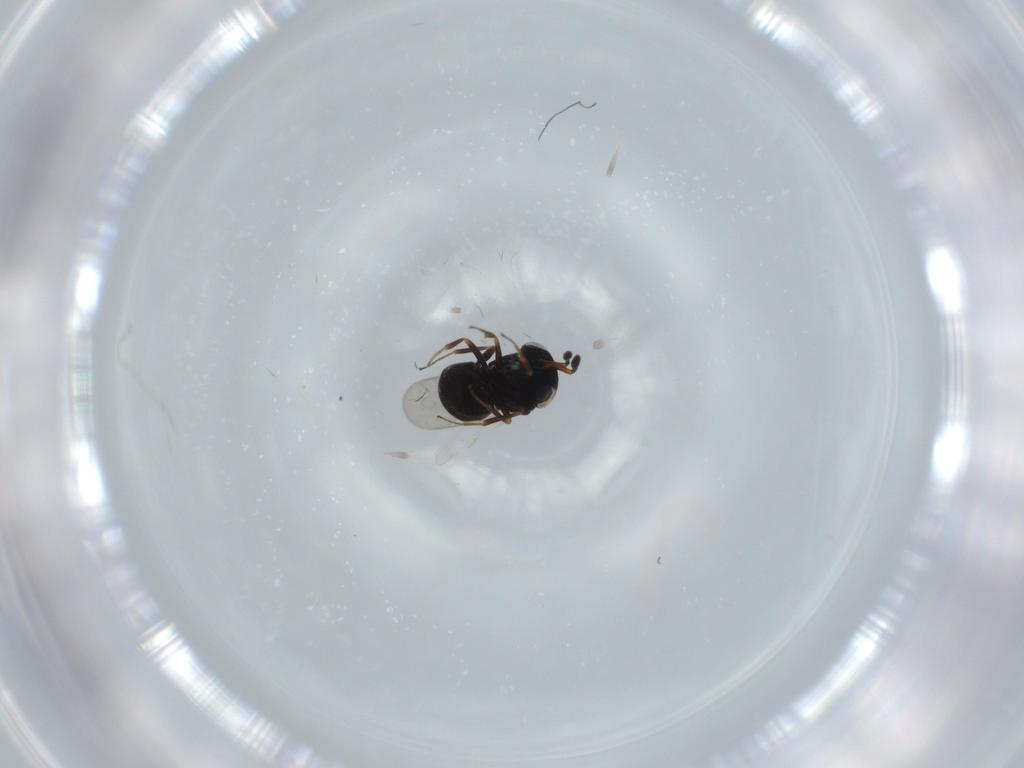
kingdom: Animalia
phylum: Arthropoda
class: Insecta
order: Hymenoptera
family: Scelionidae
